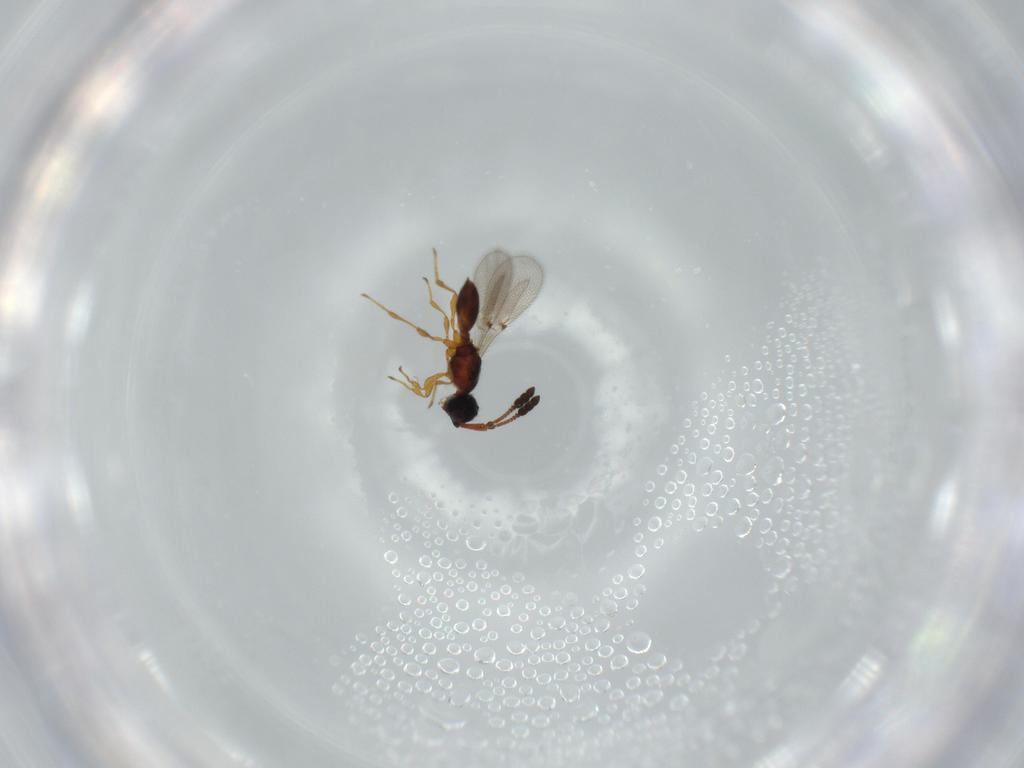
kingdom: Animalia
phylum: Arthropoda
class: Insecta
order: Hymenoptera
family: Diapriidae
